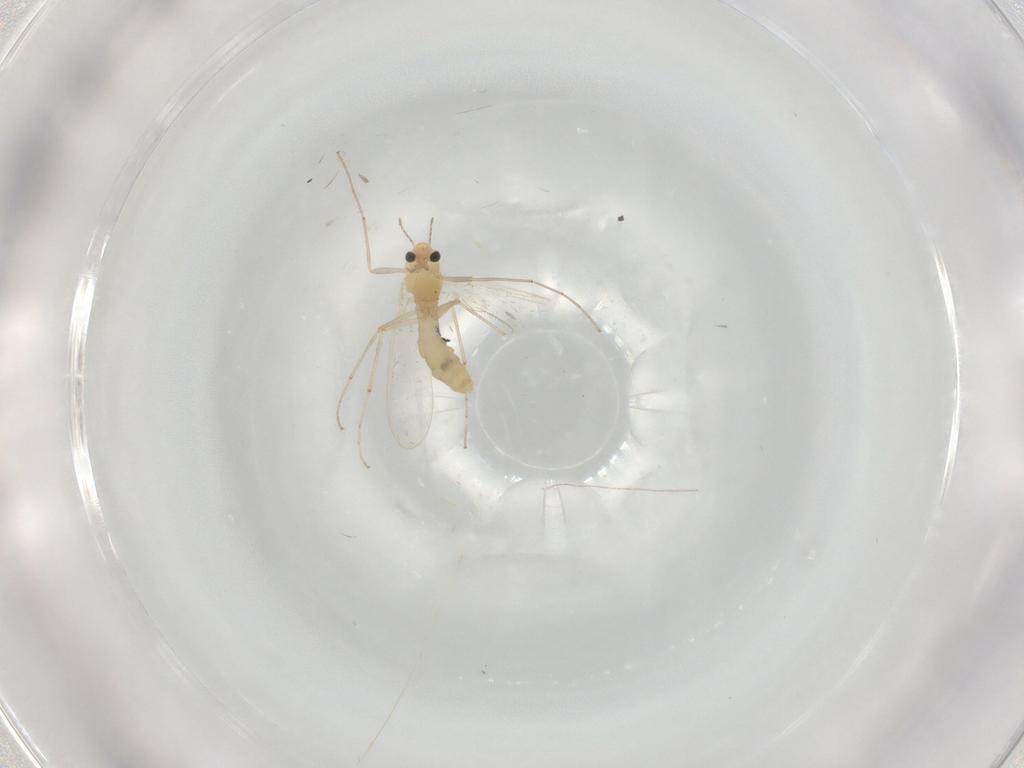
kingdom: Animalia
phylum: Arthropoda
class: Insecta
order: Diptera
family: Chironomidae
